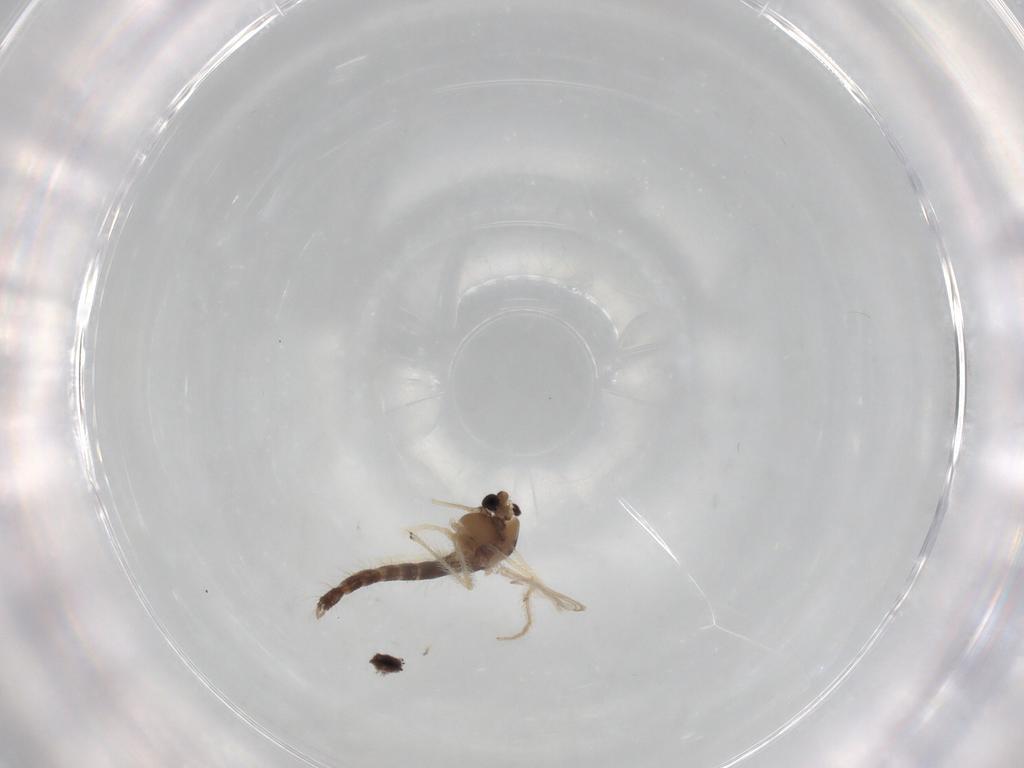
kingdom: Animalia
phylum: Arthropoda
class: Insecta
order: Diptera
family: Chironomidae
